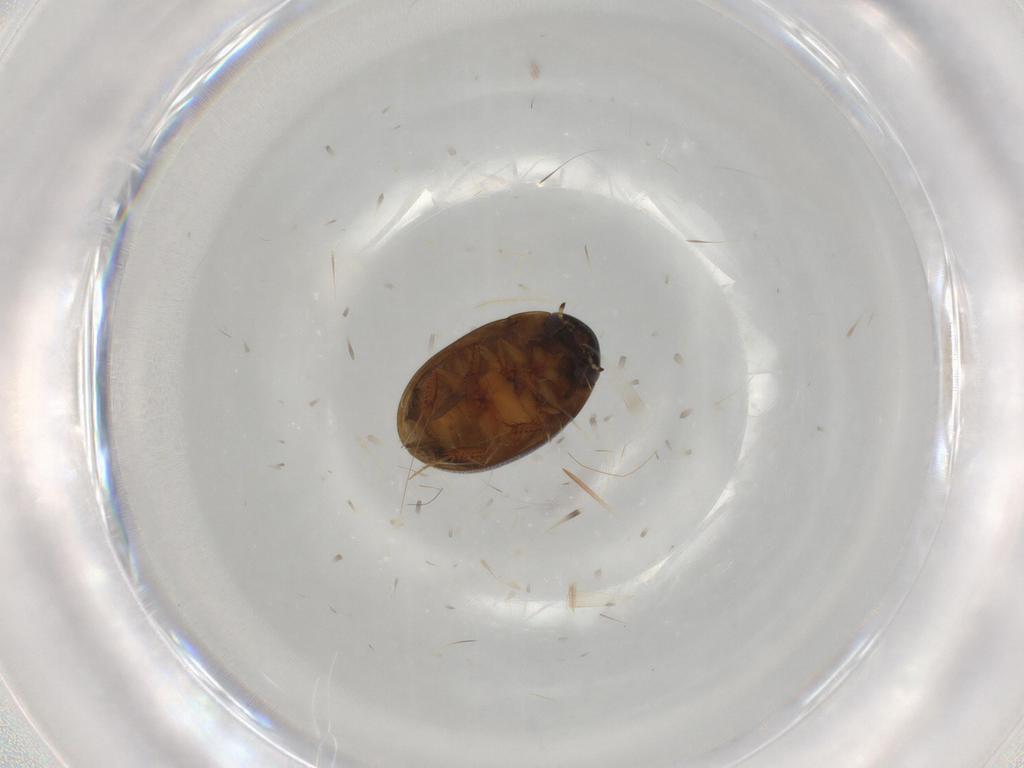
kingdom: Animalia
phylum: Arthropoda
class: Insecta
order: Coleoptera
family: Hydrophilidae
